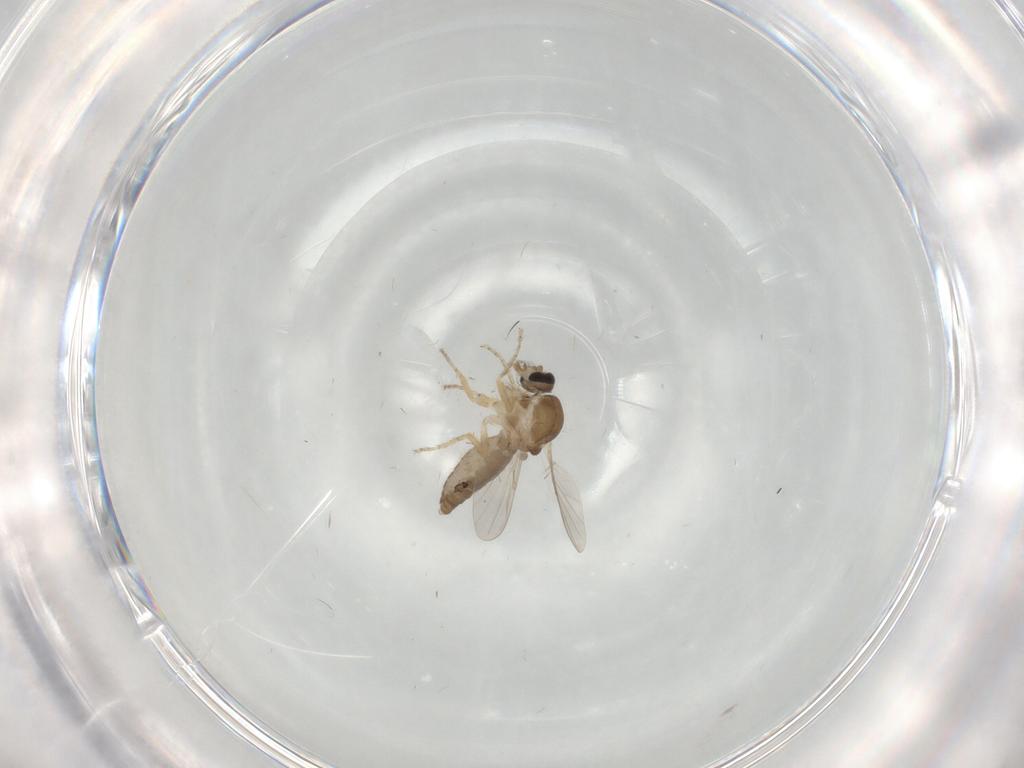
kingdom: Animalia
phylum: Arthropoda
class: Insecta
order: Diptera
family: Ceratopogonidae
